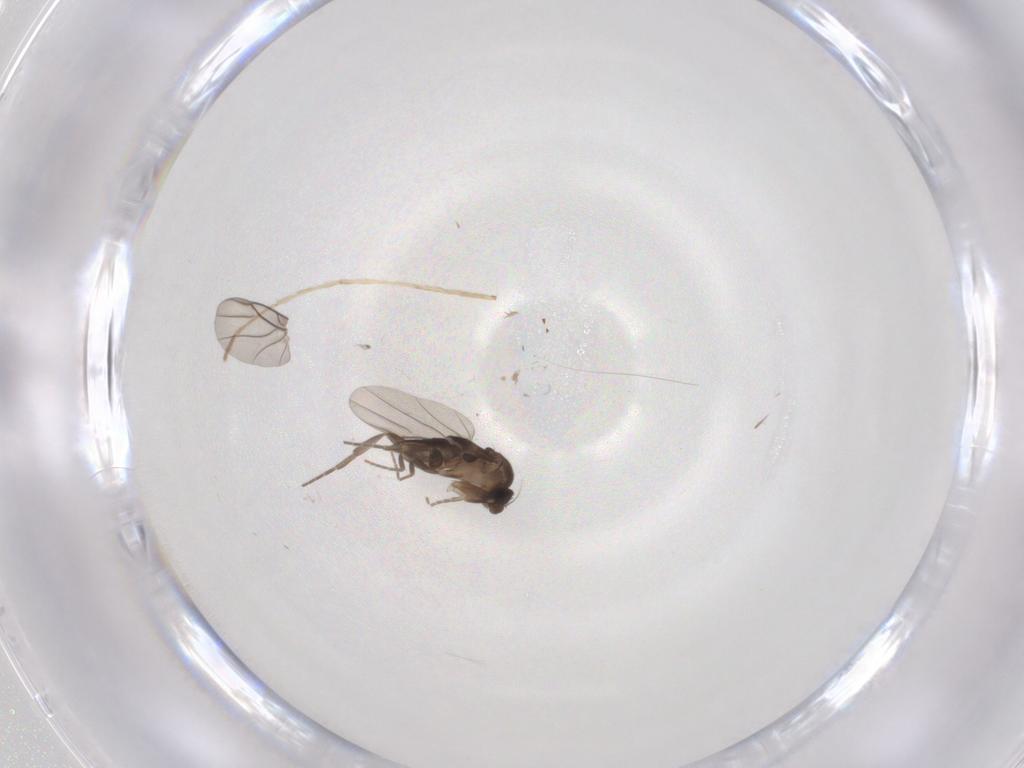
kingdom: Animalia
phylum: Arthropoda
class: Insecta
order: Diptera
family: Chironomidae
